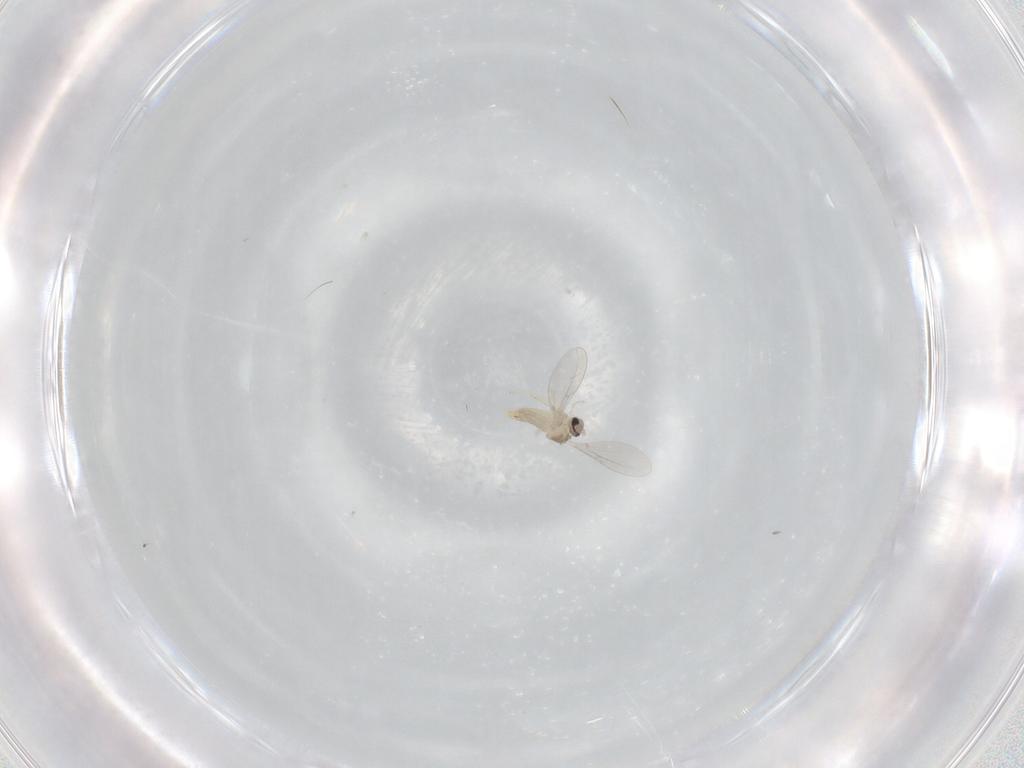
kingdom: Animalia
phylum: Arthropoda
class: Insecta
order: Diptera
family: Cecidomyiidae
